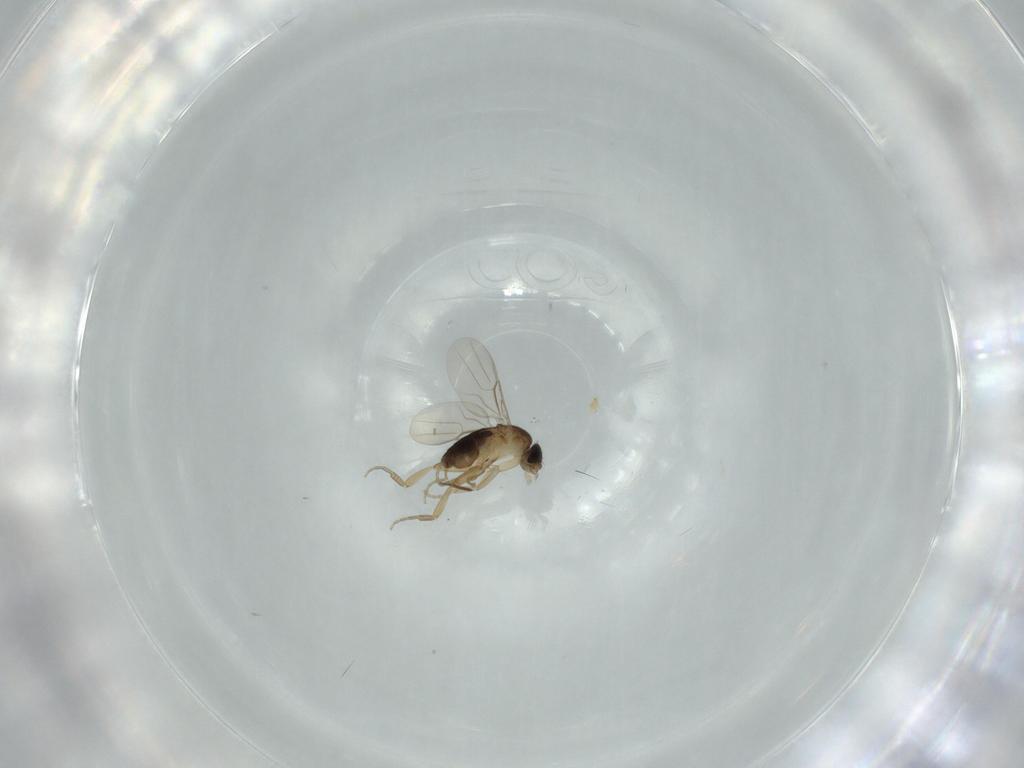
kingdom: Animalia
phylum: Arthropoda
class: Insecta
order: Diptera
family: Phoridae
